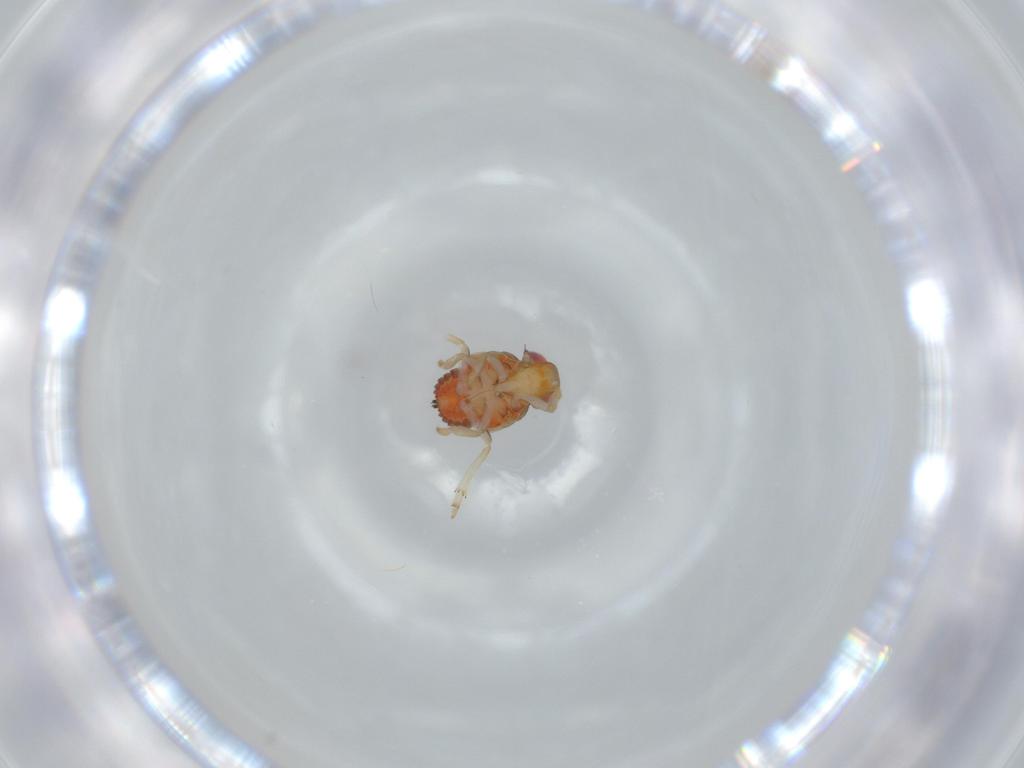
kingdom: Animalia
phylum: Arthropoda
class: Insecta
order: Hemiptera
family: Issidae
